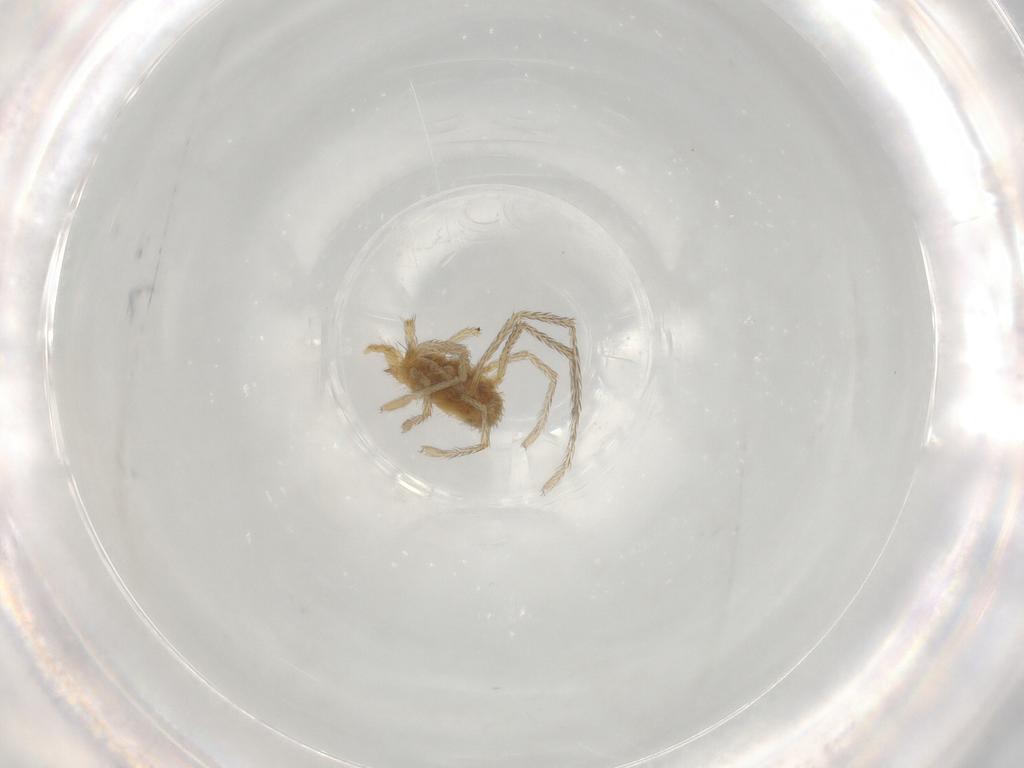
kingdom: Animalia
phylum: Arthropoda
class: Arachnida
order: Trombidiformes
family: Erythraeidae
